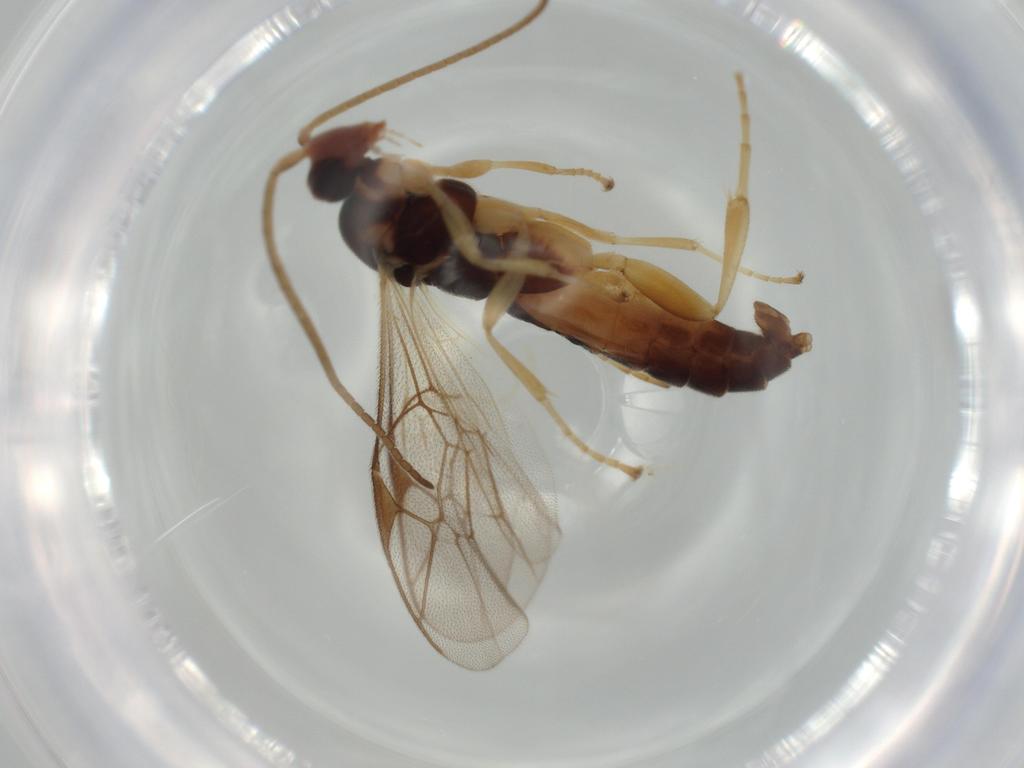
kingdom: Animalia
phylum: Arthropoda
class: Insecta
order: Hymenoptera
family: Ichneumonidae
